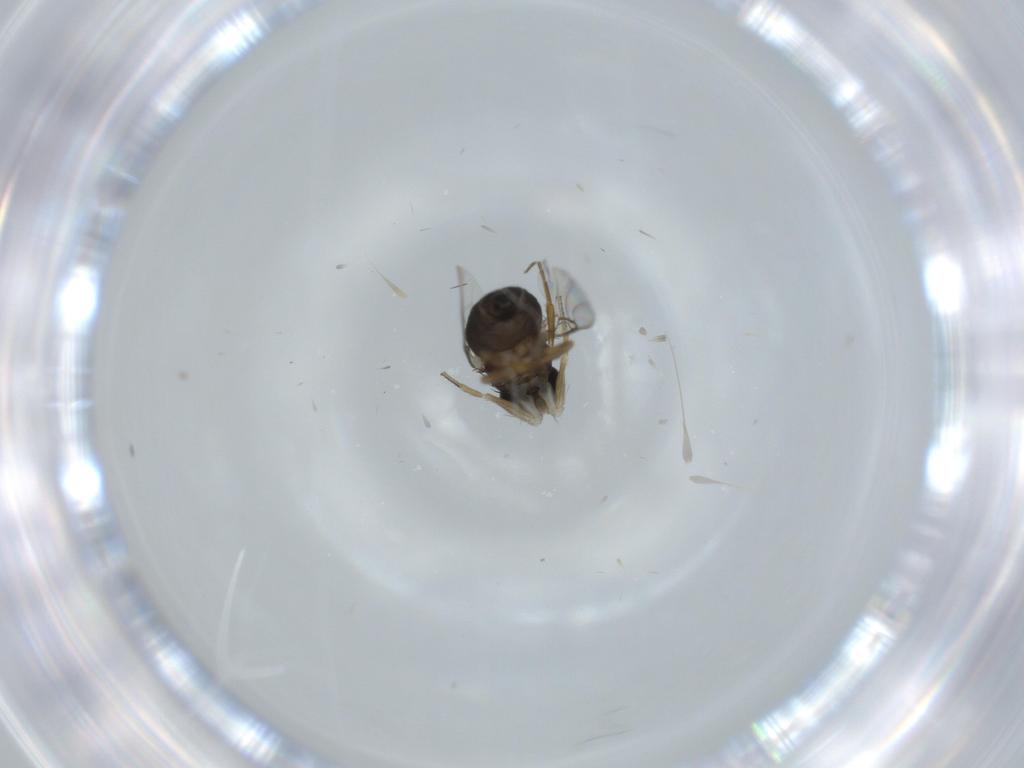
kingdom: Animalia
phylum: Arthropoda
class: Insecta
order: Diptera
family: Phoridae
